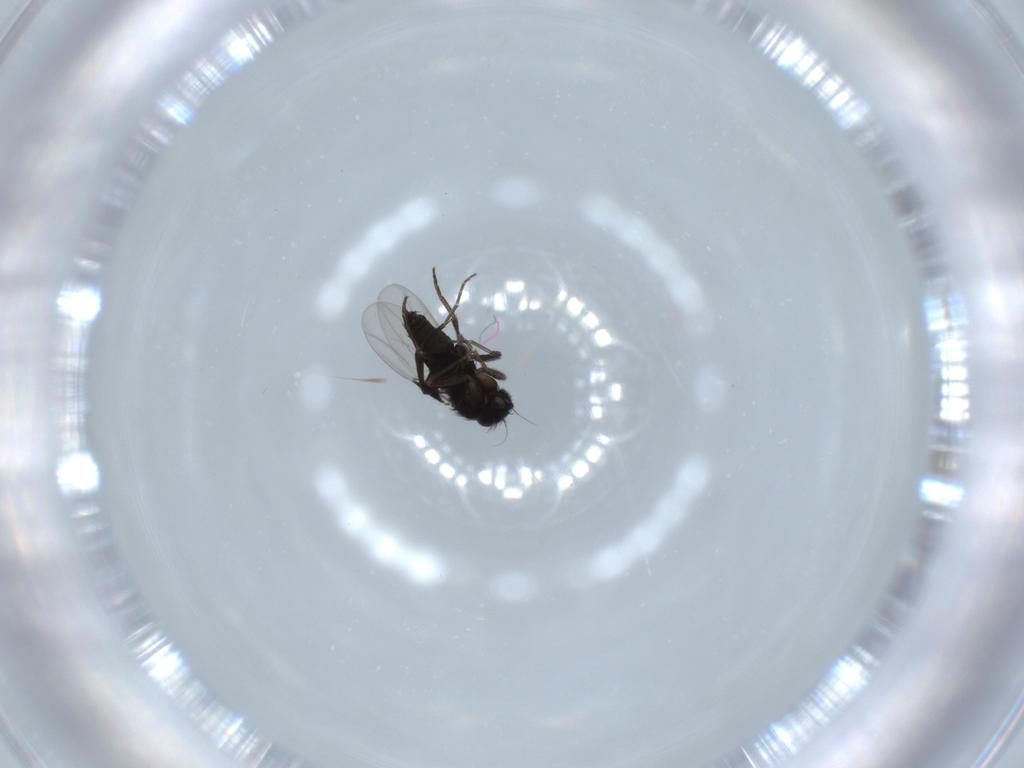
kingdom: Animalia
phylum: Arthropoda
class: Insecta
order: Diptera
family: Phoridae
